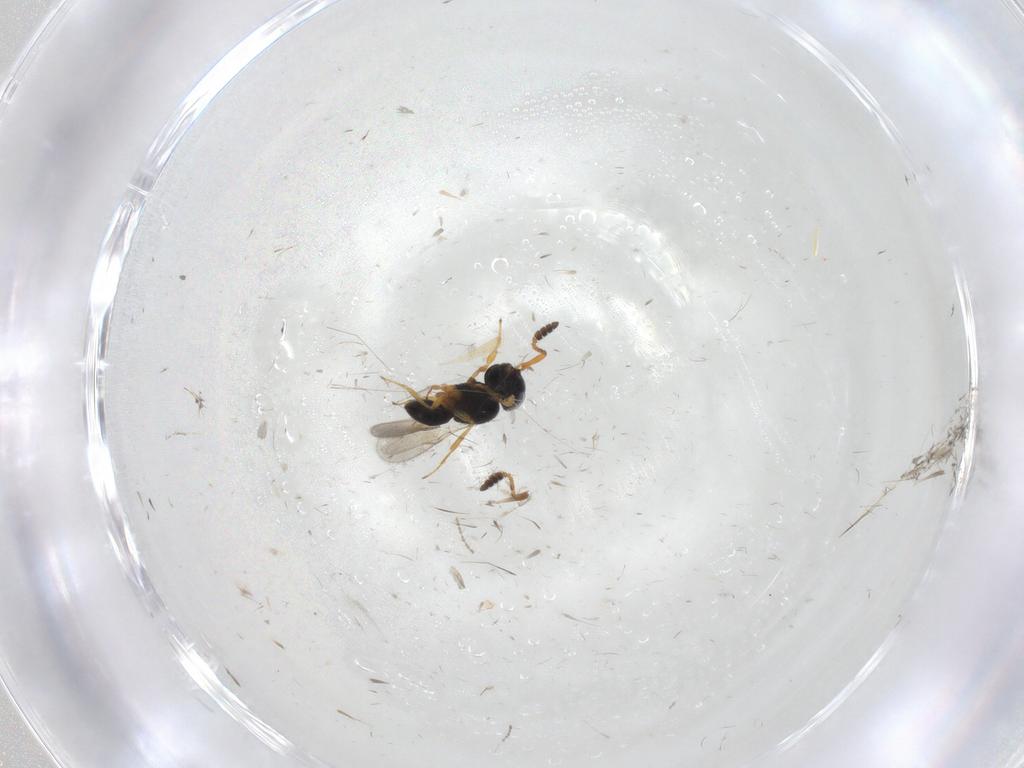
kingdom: Animalia
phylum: Arthropoda
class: Insecta
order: Hymenoptera
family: Scelionidae
